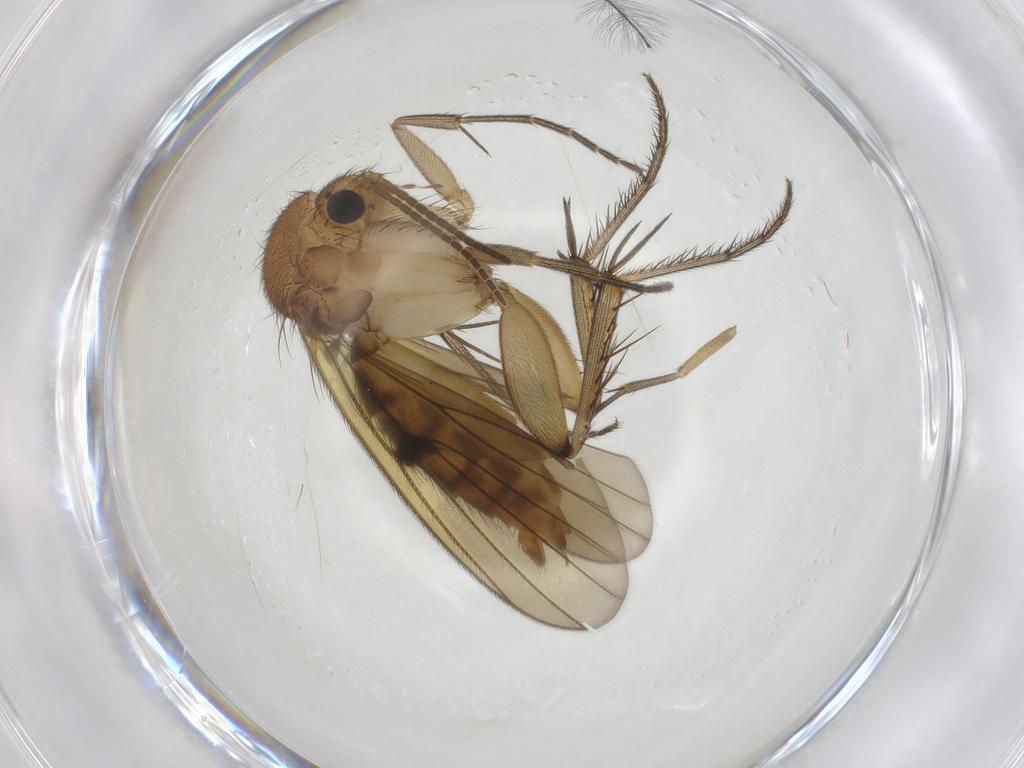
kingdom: Animalia
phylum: Arthropoda
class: Insecta
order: Diptera
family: Mycetophilidae
